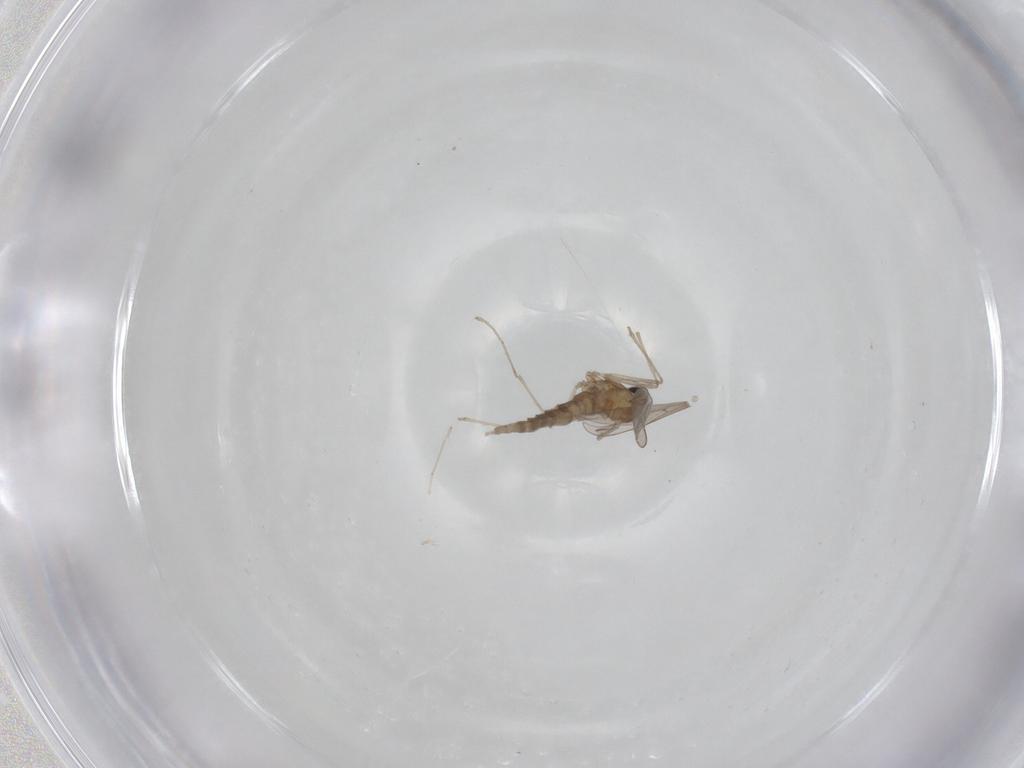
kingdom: Animalia
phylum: Arthropoda
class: Insecta
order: Diptera
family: Cecidomyiidae
